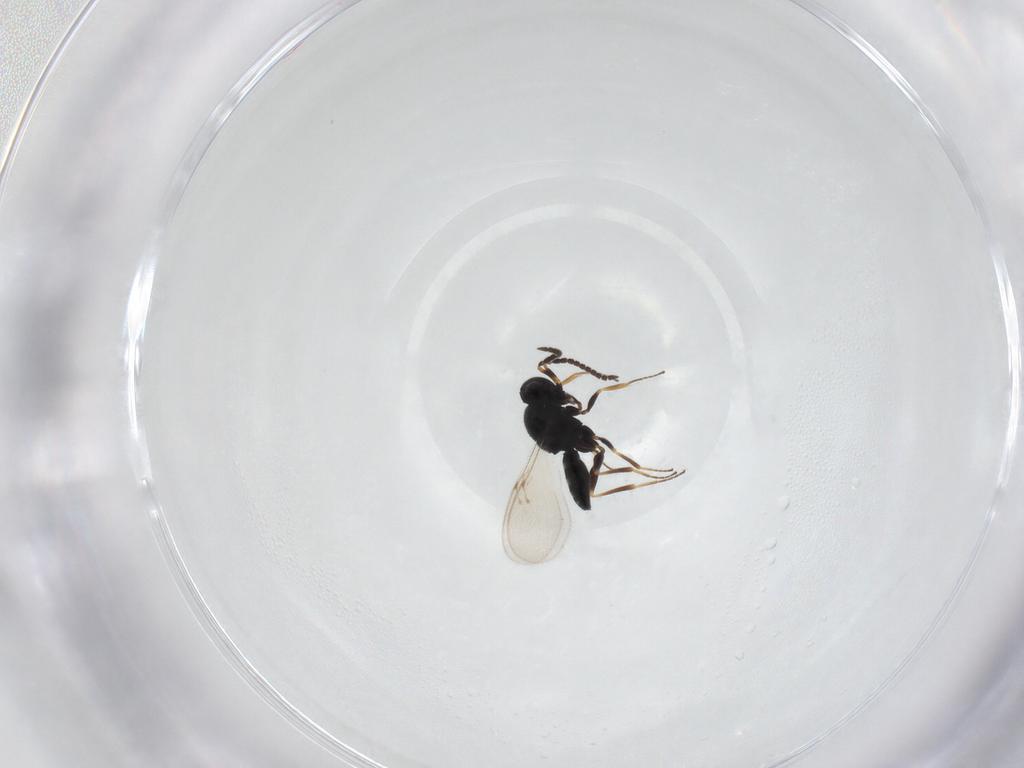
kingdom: Animalia
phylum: Arthropoda
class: Insecta
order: Hymenoptera
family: Scelionidae
